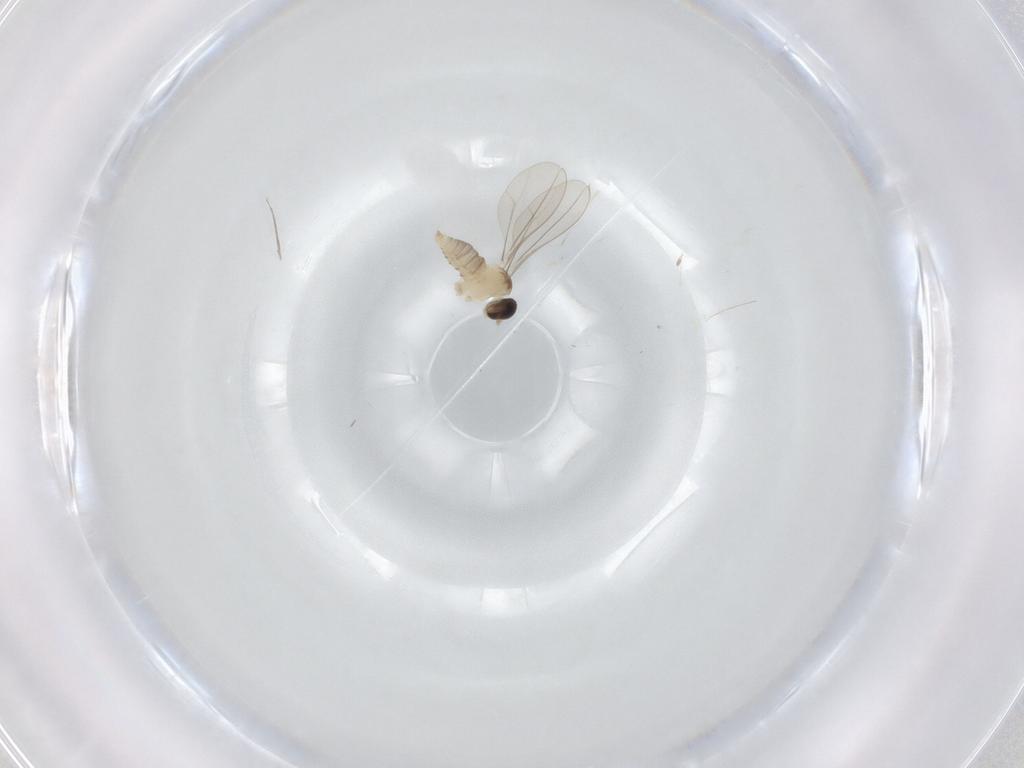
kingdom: Animalia
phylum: Arthropoda
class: Insecta
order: Diptera
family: Cecidomyiidae
